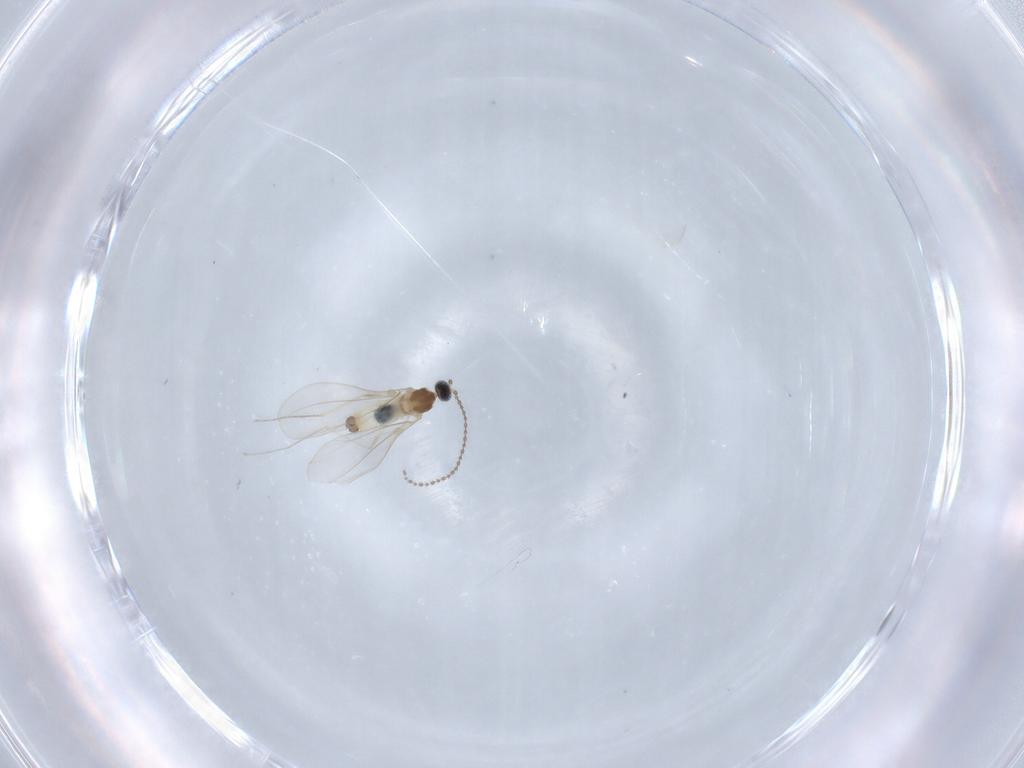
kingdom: Animalia
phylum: Arthropoda
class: Insecta
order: Diptera
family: Cecidomyiidae
